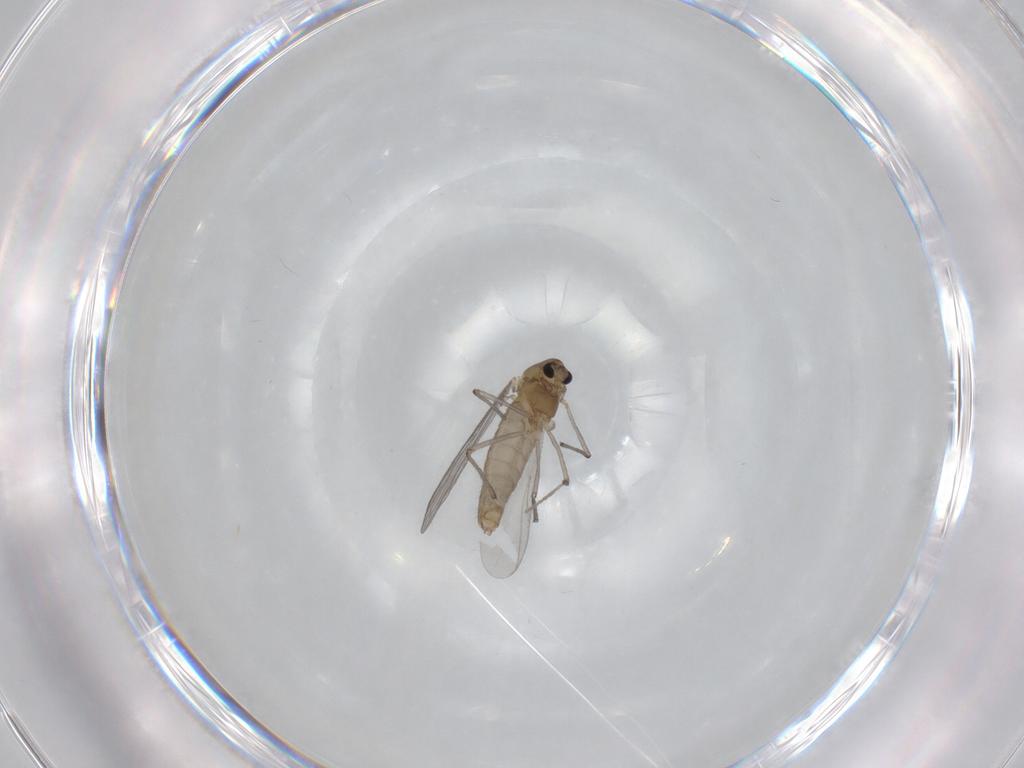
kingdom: Animalia
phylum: Arthropoda
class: Insecta
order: Diptera
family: Chironomidae
